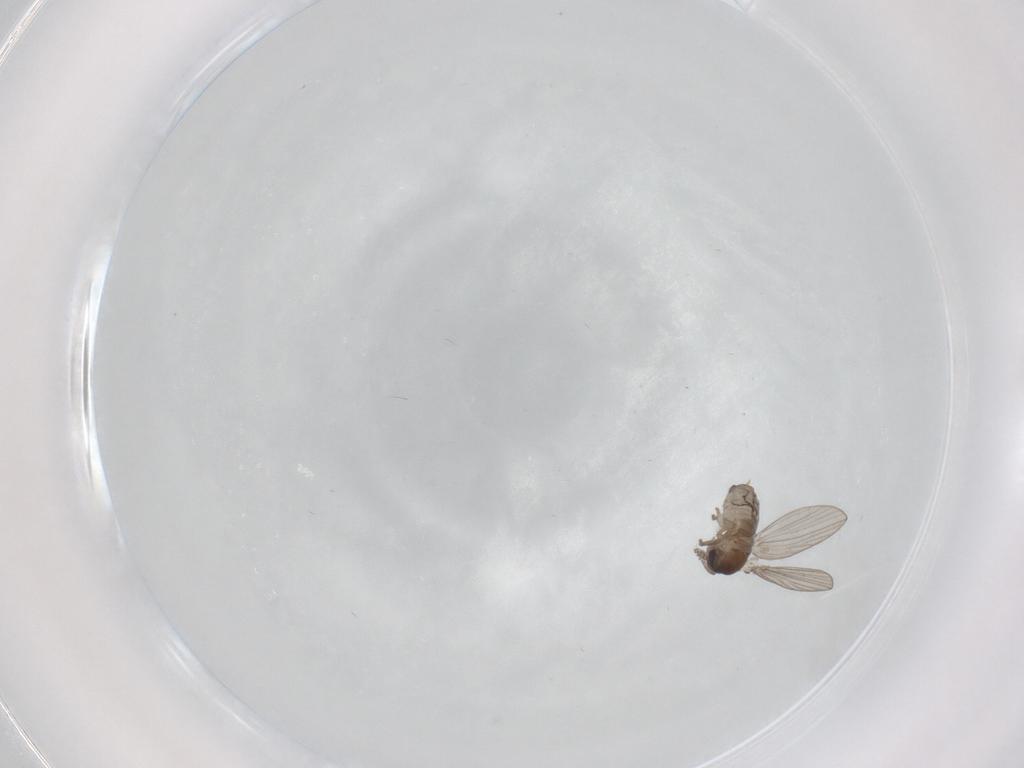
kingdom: Animalia
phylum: Arthropoda
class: Insecta
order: Diptera
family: Psychodidae
